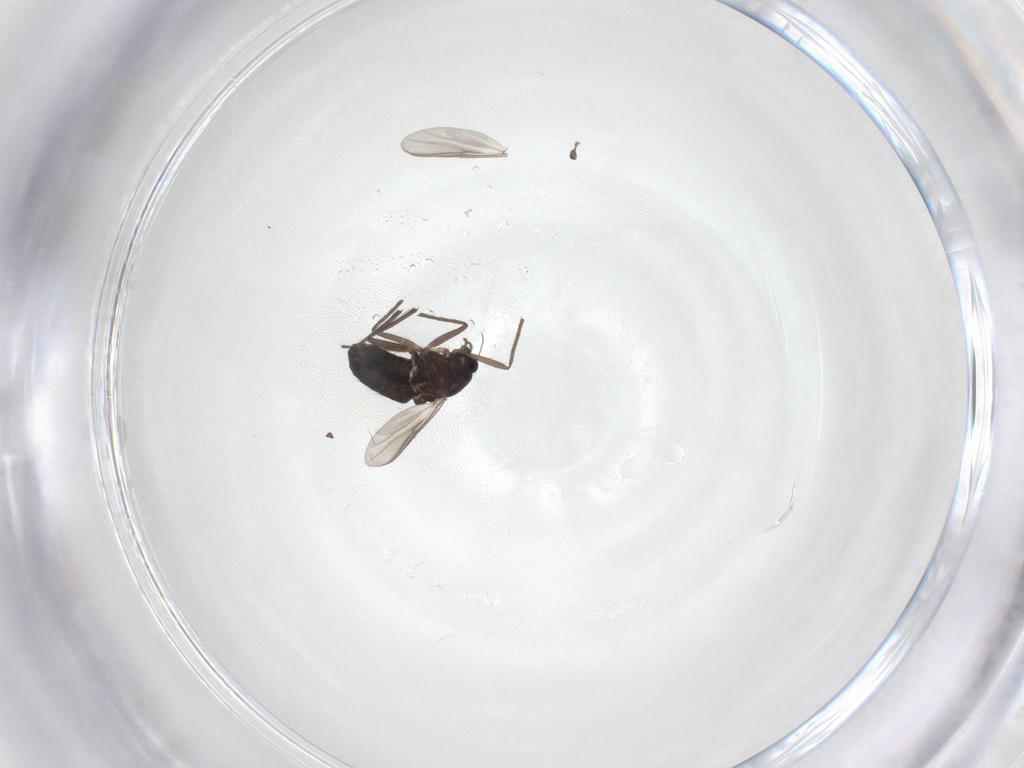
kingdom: Animalia
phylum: Arthropoda
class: Insecta
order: Diptera
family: Chironomidae
